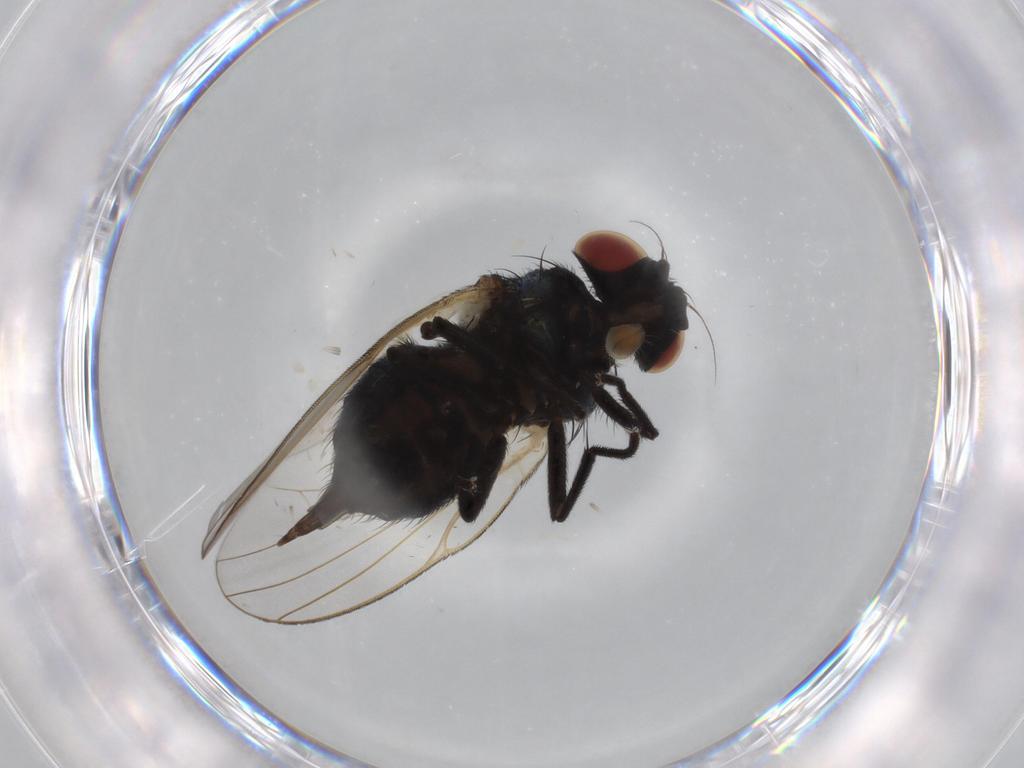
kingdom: Animalia
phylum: Arthropoda
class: Insecta
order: Diptera
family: Lonchaeidae
